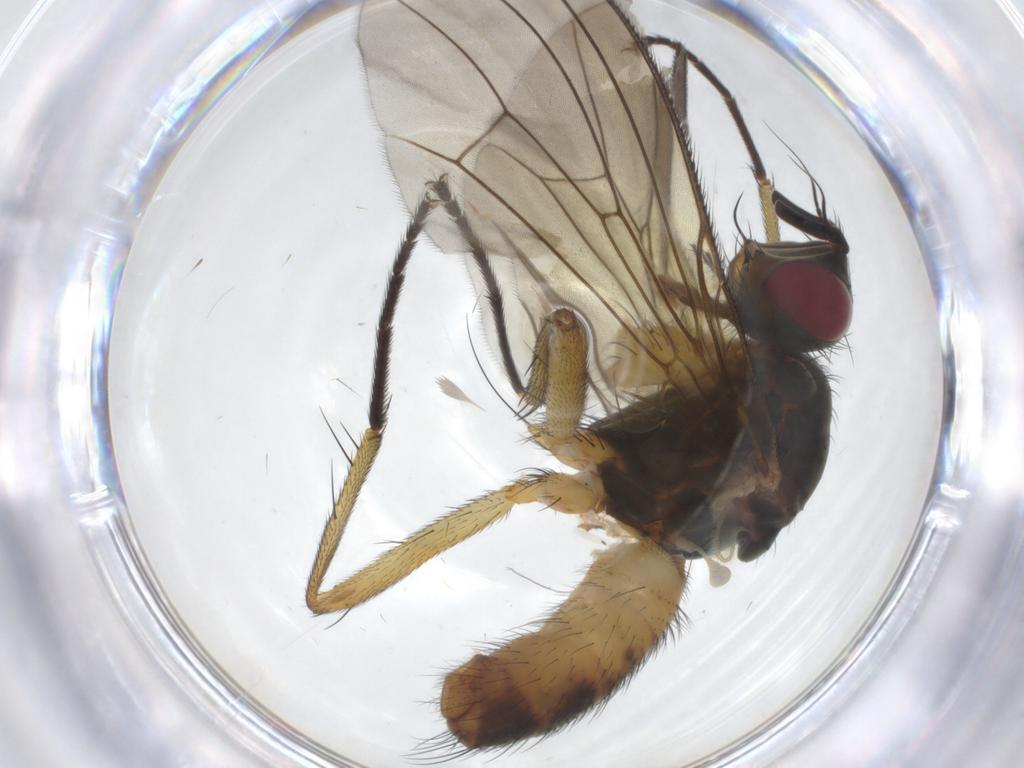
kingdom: Animalia
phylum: Arthropoda
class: Insecta
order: Diptera
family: Muscidae
